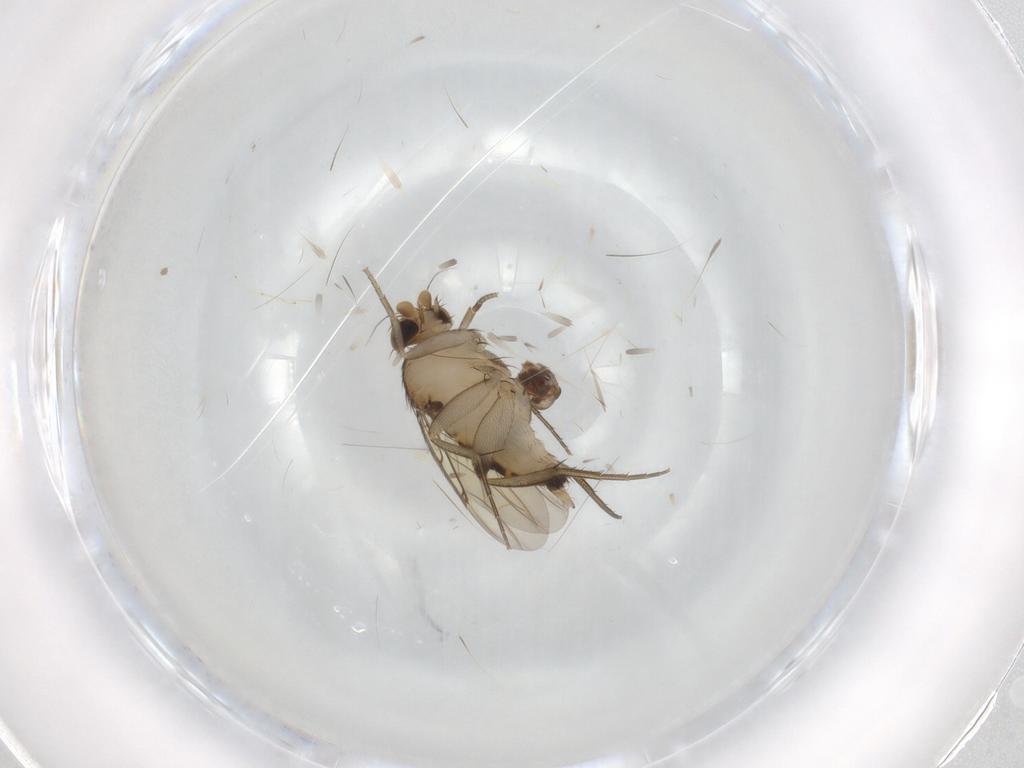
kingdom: Animalia
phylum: Arthropoda
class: Insecta
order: Diptera
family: Phoridae
